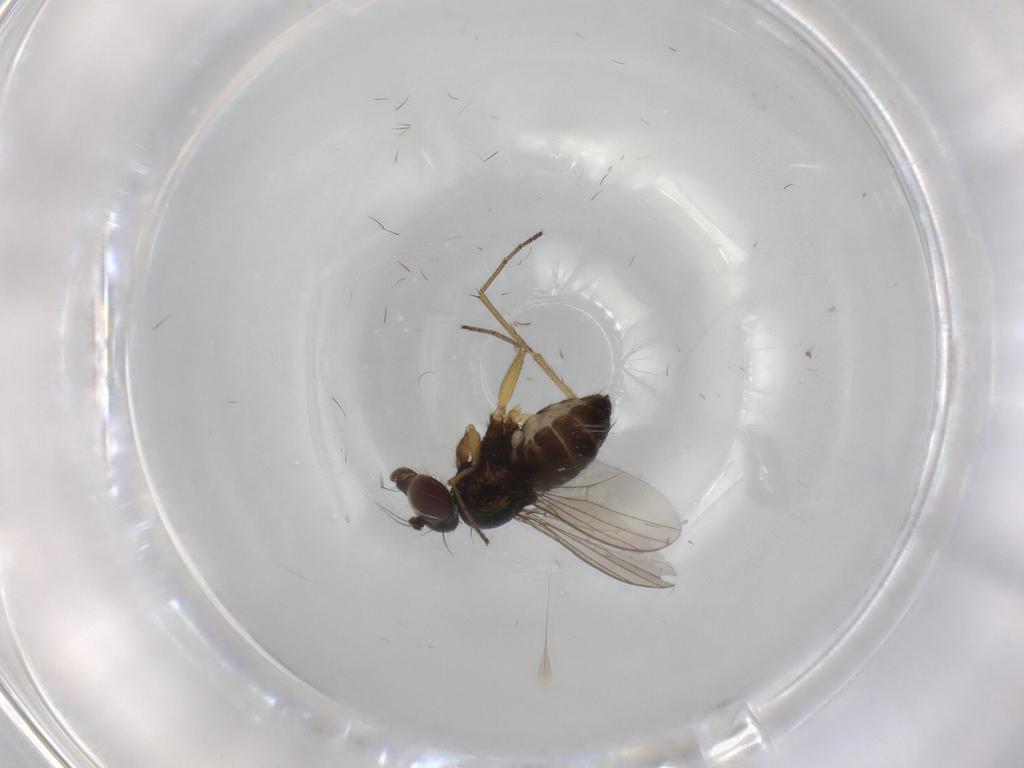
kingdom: Animalia
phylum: Arthropoda
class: Insecta
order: Diptera
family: Dolichopodidae
